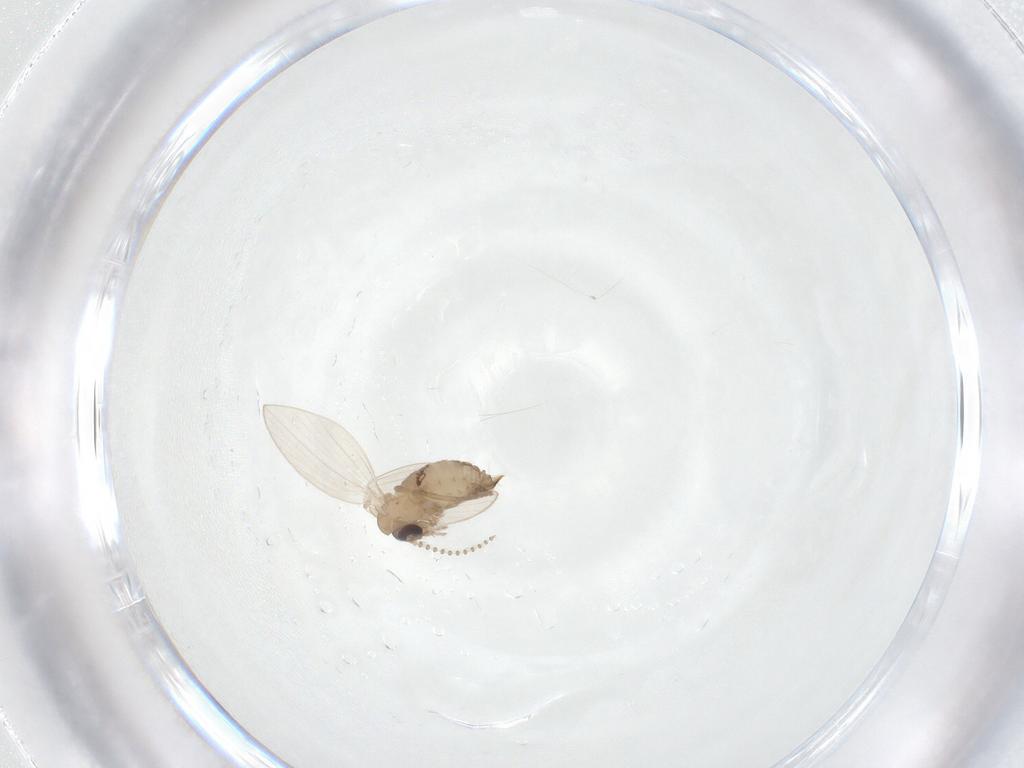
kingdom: Animalia
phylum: Arthropoda
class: Insecta
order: Diptera
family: Psychodidae
